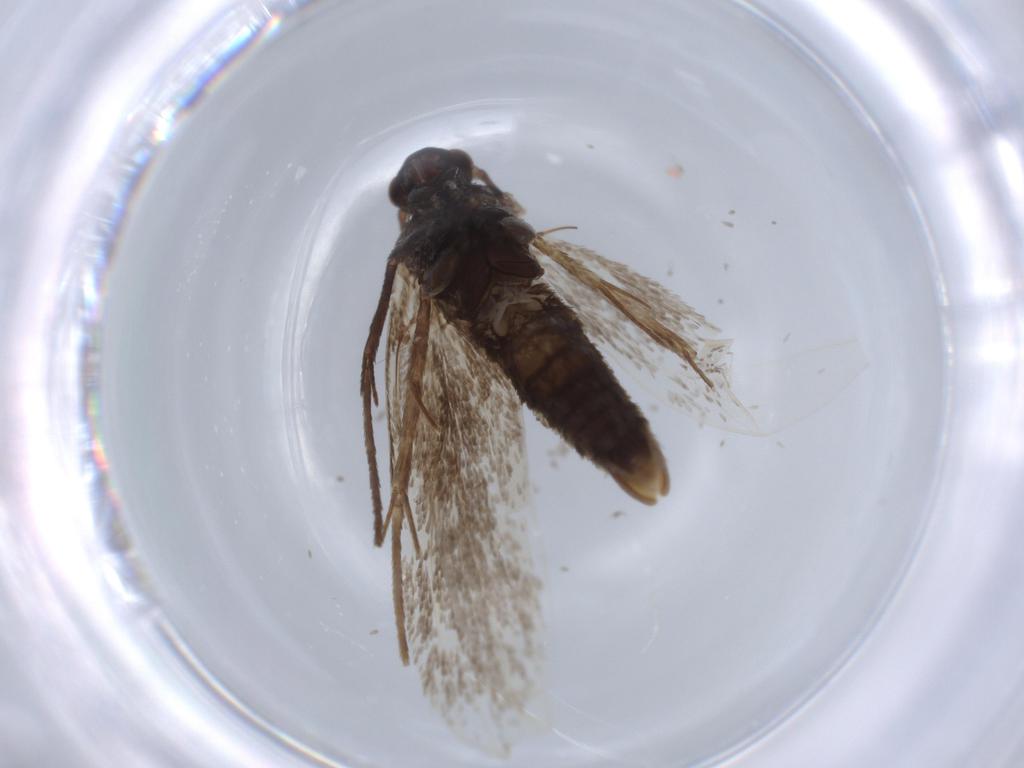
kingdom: Animalia
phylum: Arthropoda
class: Insecta
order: Lepidoptera
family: Gracillariidae
